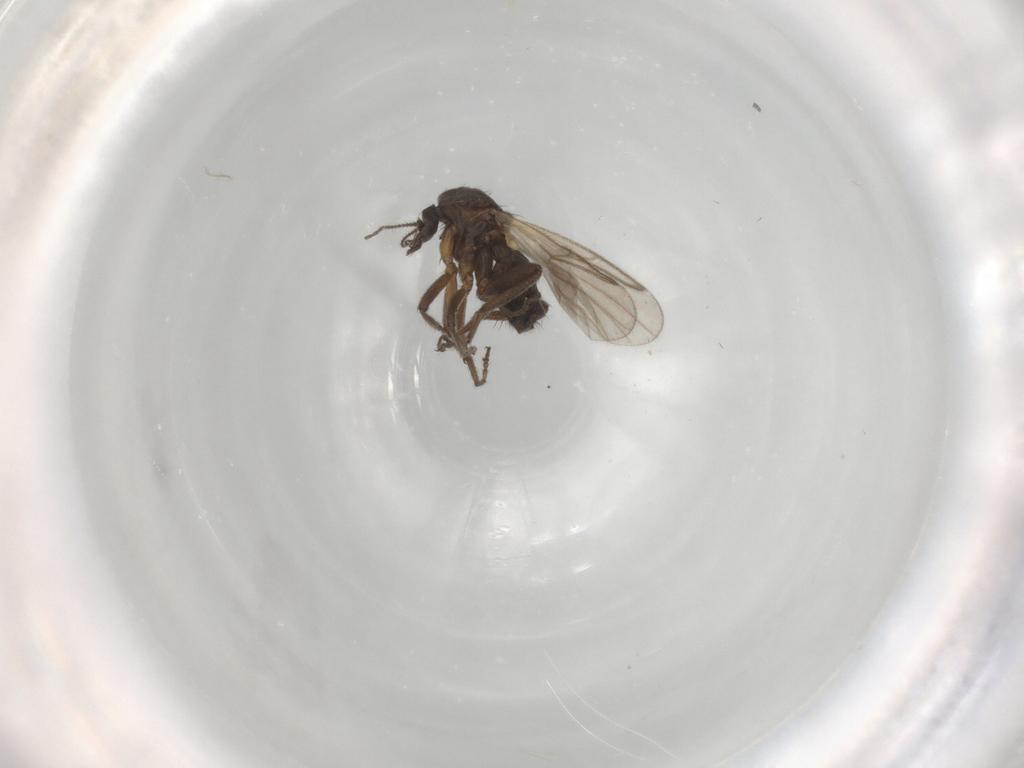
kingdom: Animalia
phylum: Arthropoda
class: Insecta
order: Diptera
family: Ceratopogonidae
